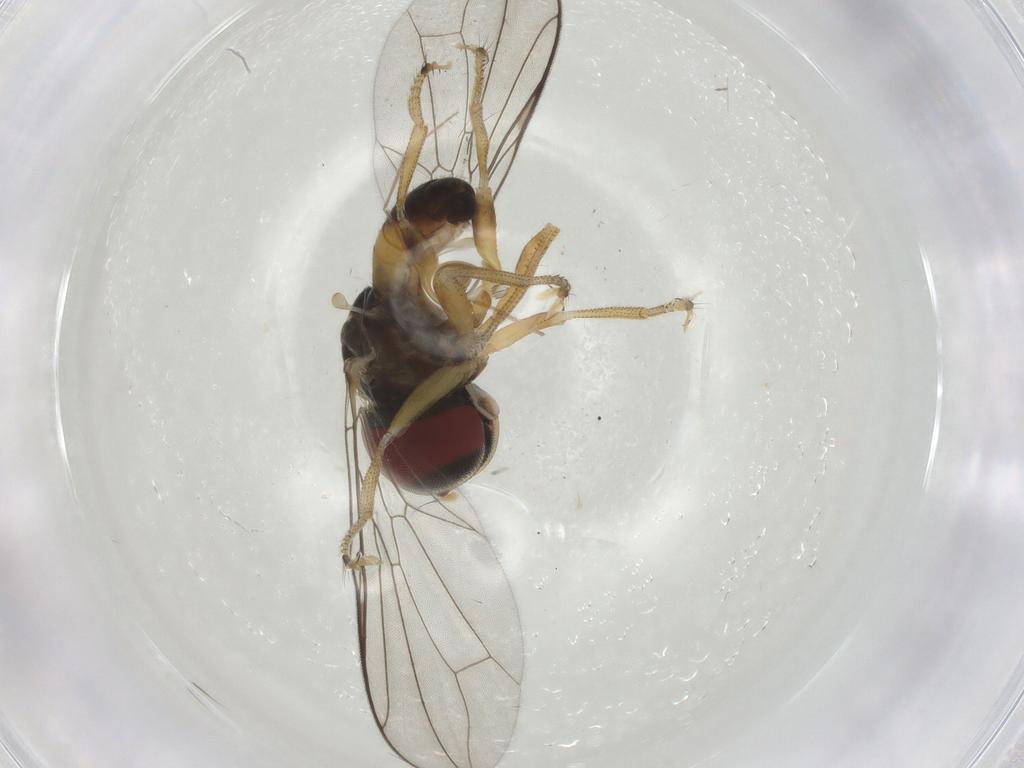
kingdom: Animalia
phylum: Arthropoda
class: Insecta
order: Diptera
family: Pipunculidae
